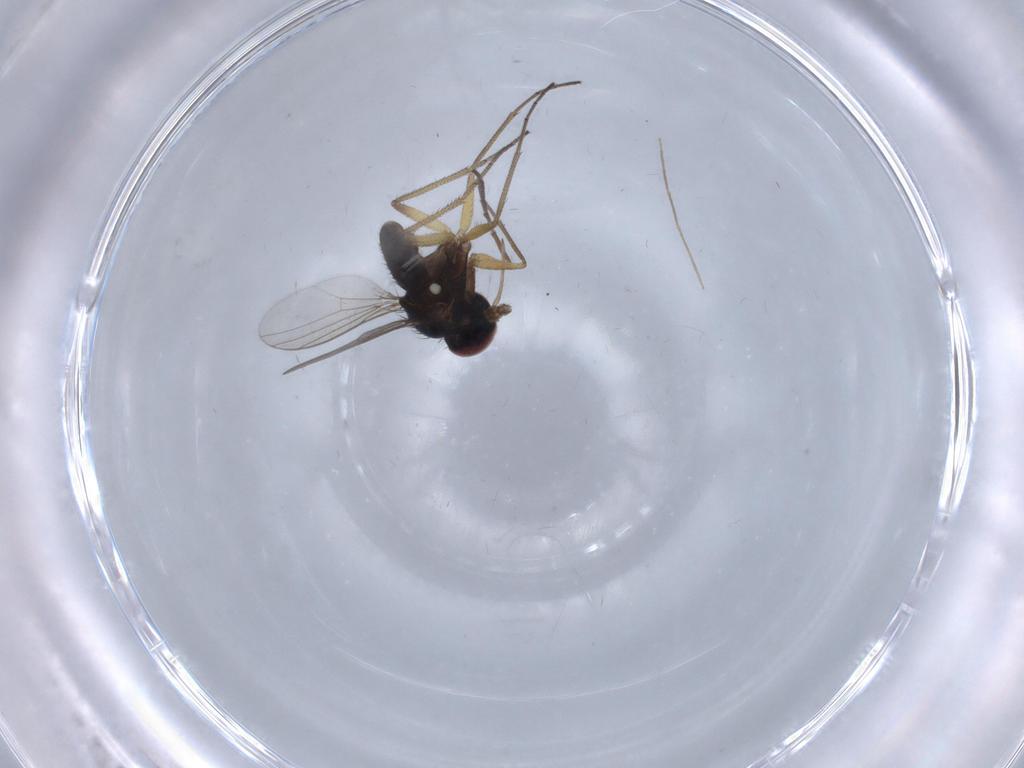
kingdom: Animalia
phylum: Arthropoda
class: Insecta
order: Diptera
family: Dolichopodidae
